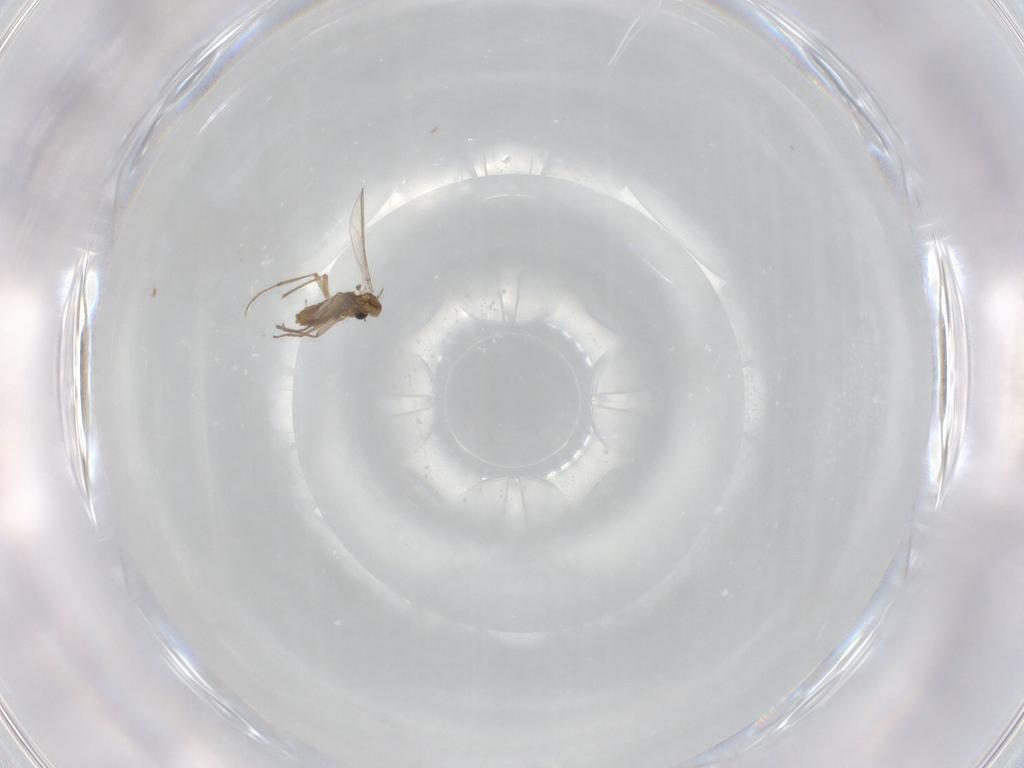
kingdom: Animalia
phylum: Arthropoda
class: Insecta
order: Diptera
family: Chironomidae
